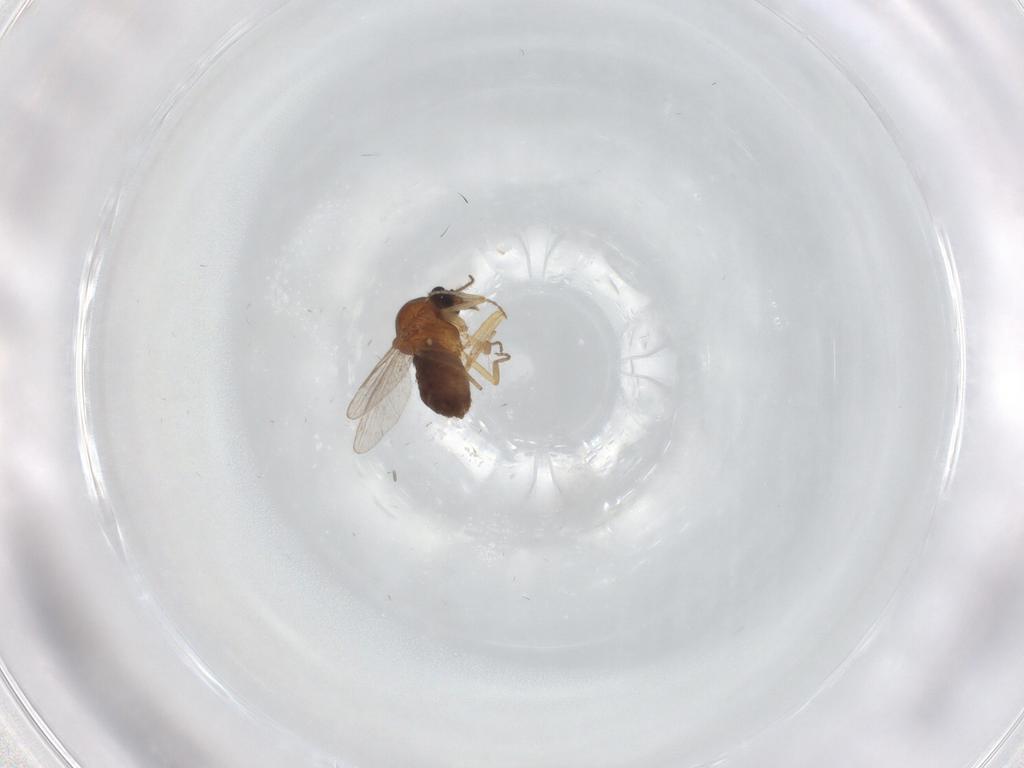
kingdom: Animalia
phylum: Arthropoda
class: Insecta
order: Diptera
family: Ceratopogonidae
